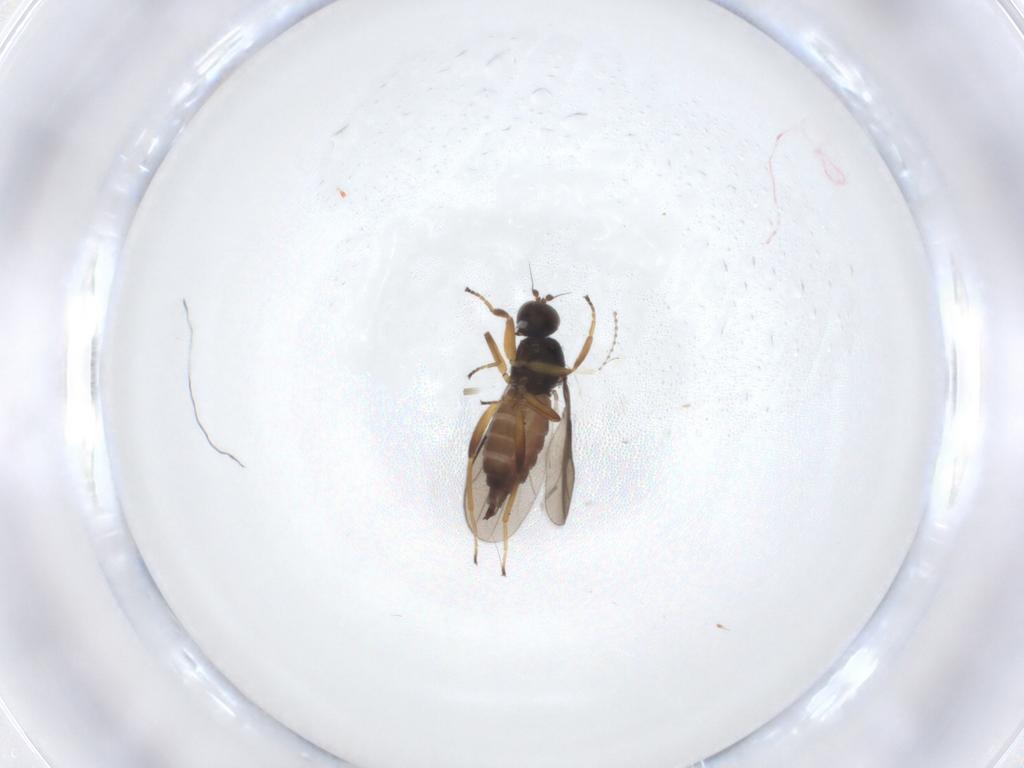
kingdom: Animalia
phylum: Arthropoda
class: Insecta
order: Diptera
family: Hybotidae
